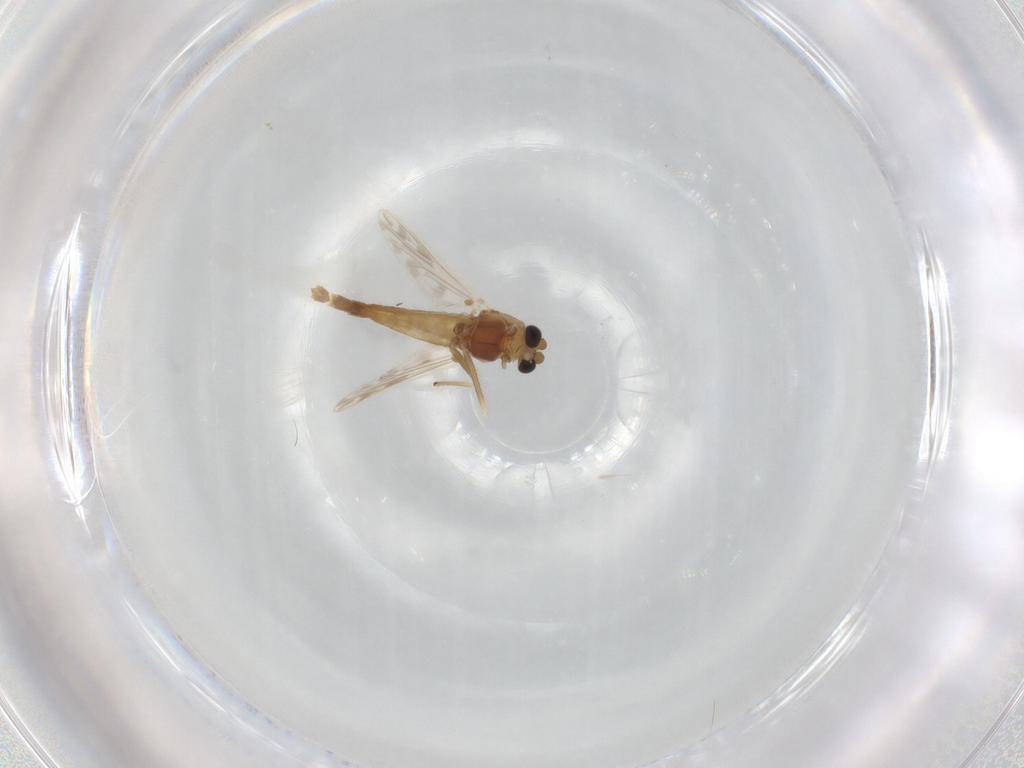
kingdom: Animalia
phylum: Arthropoda
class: Insecta
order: Diptera
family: Chironomidae
